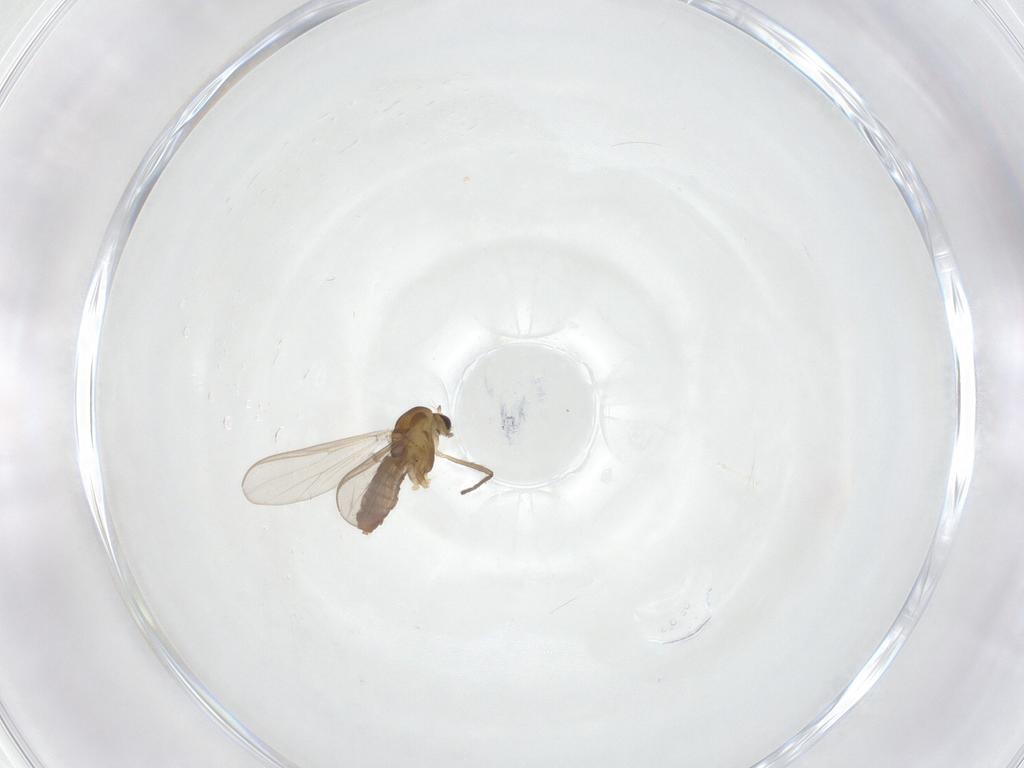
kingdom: Animalia
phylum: Arthropoda
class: Insecta
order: Diptera
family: Chironomidae
